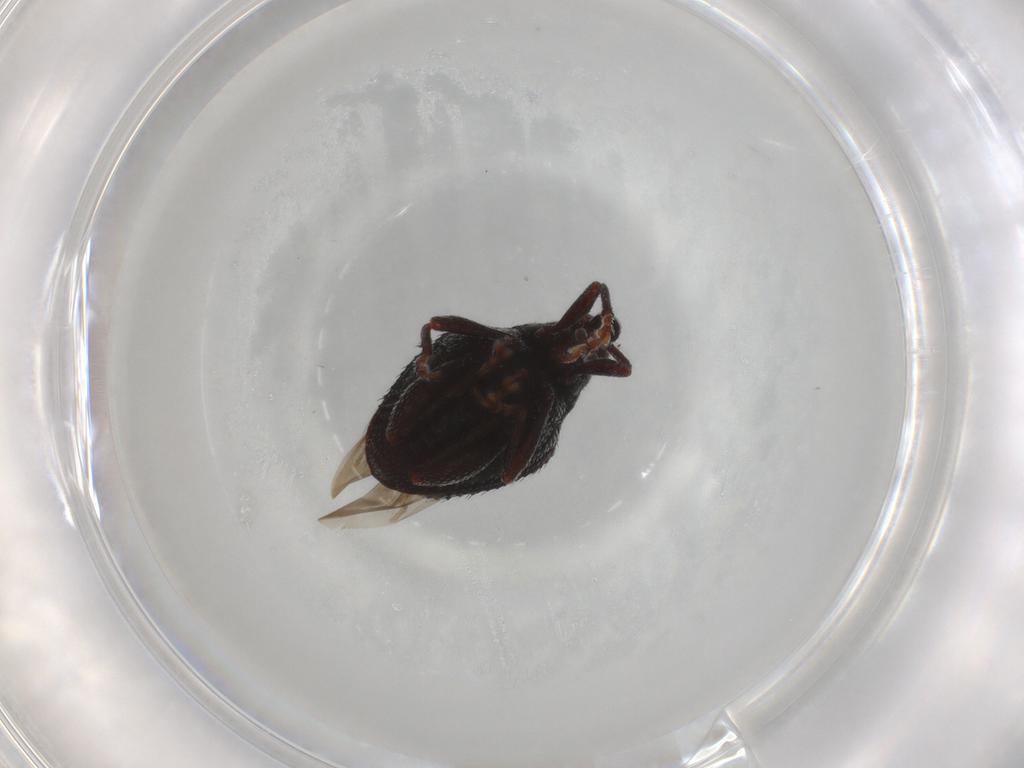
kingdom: Animalia
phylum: Arthropoda
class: Insecta
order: Coleoptera
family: Curculionidae
